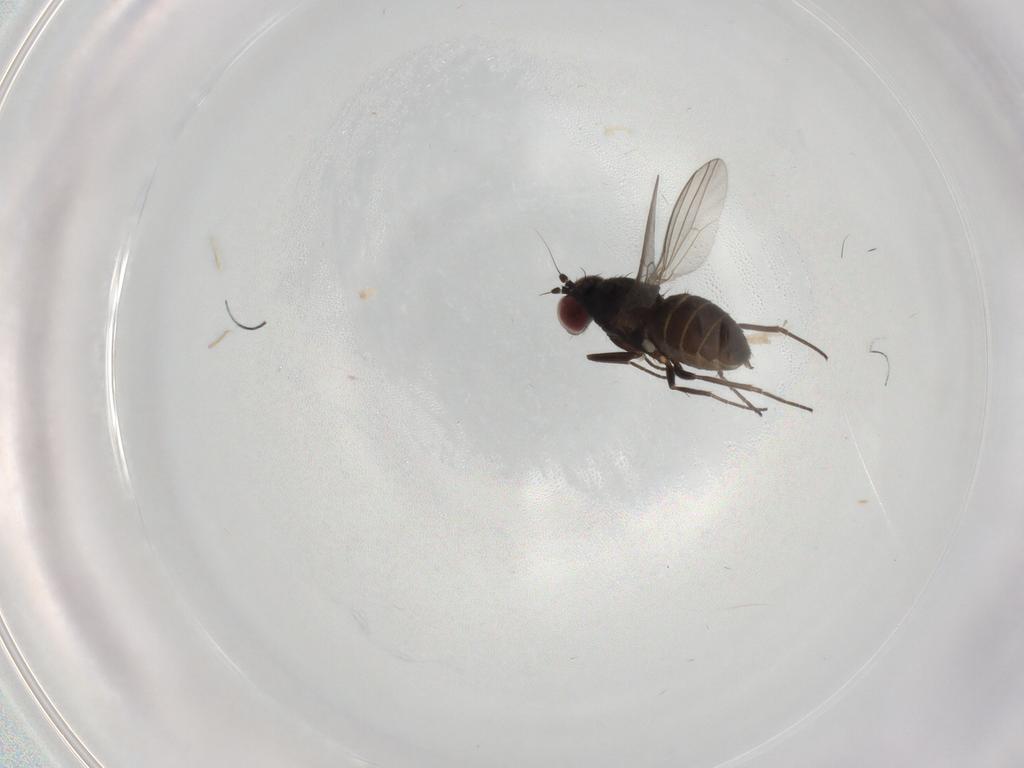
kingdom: Animalia
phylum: Arthropoda
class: Insecta
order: Diptera
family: Dolichopodidae
